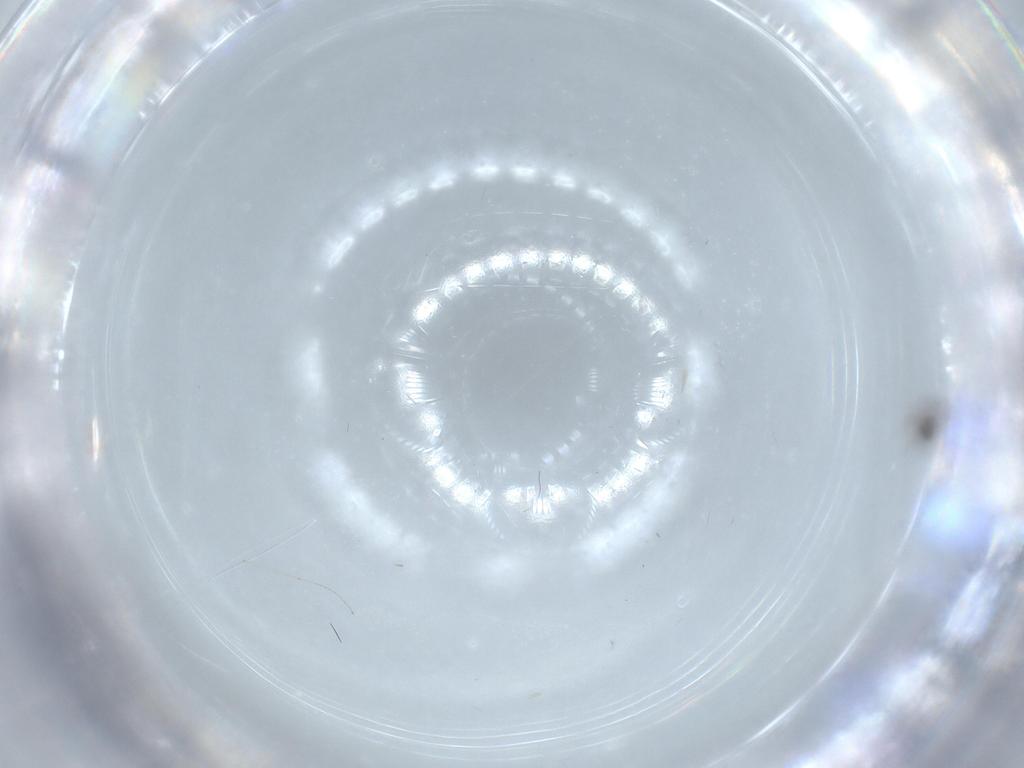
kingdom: Animalia
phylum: Arthropoda
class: Insecta
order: Diptera
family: Cecidomyiidae
